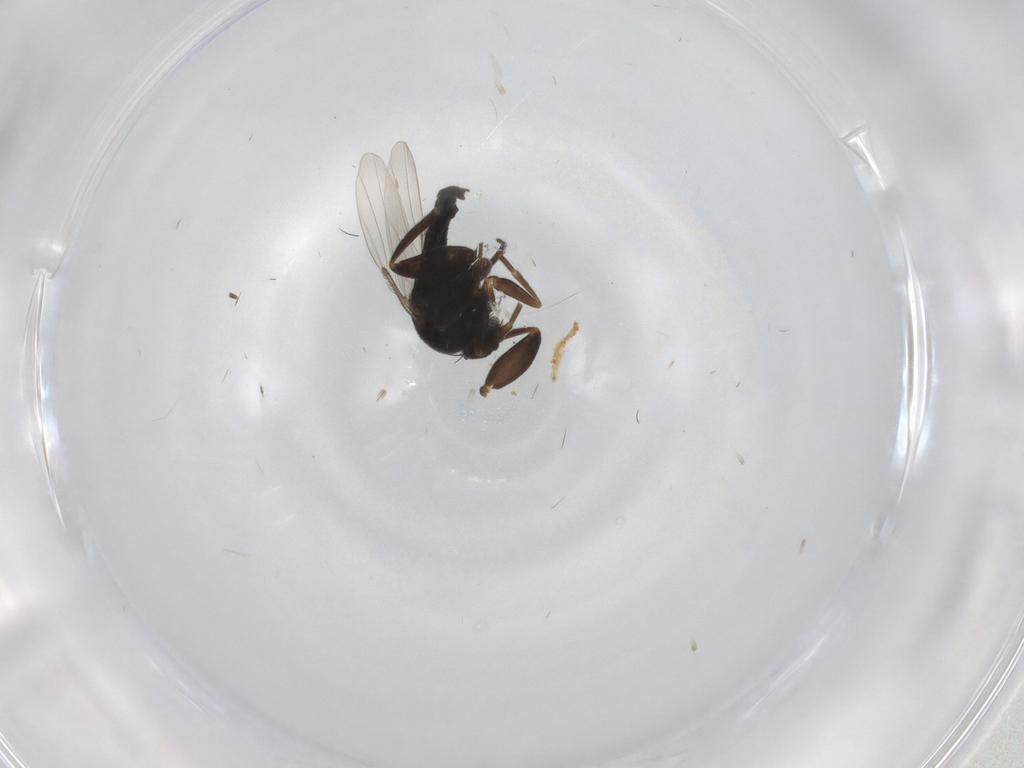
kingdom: Animalia
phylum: Arthropoda
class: Insecta
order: Diptera
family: Phoridae
